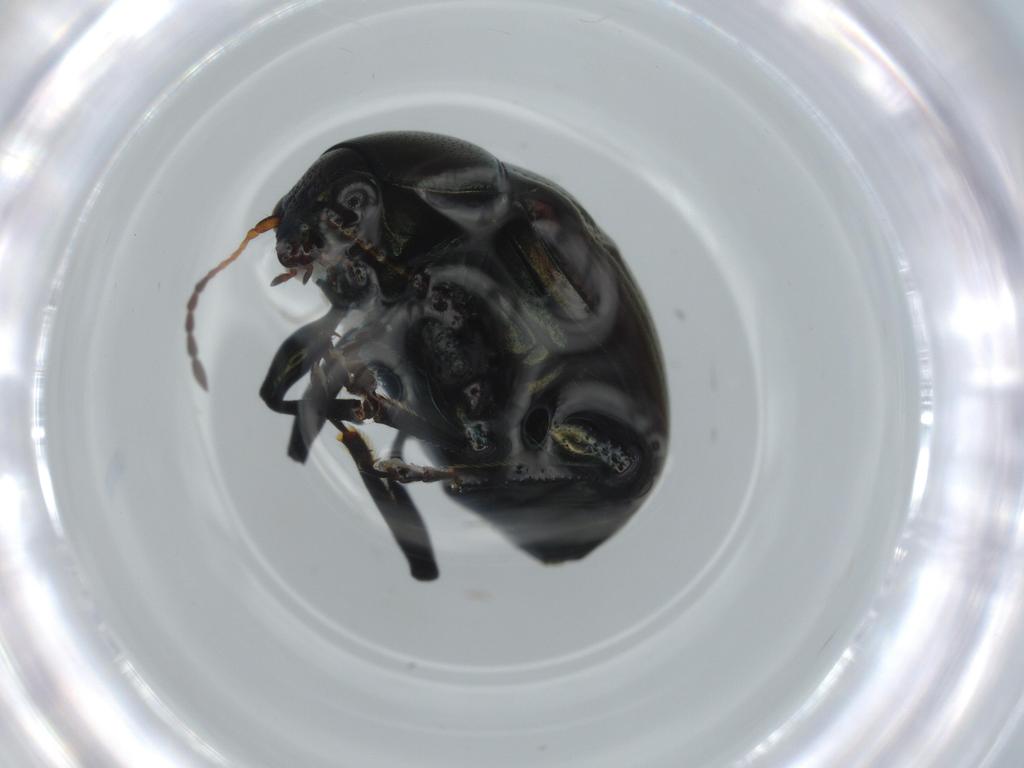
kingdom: Animalia
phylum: Arthropoda
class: Insecta
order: Coleoptera
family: Chrysomelidae
